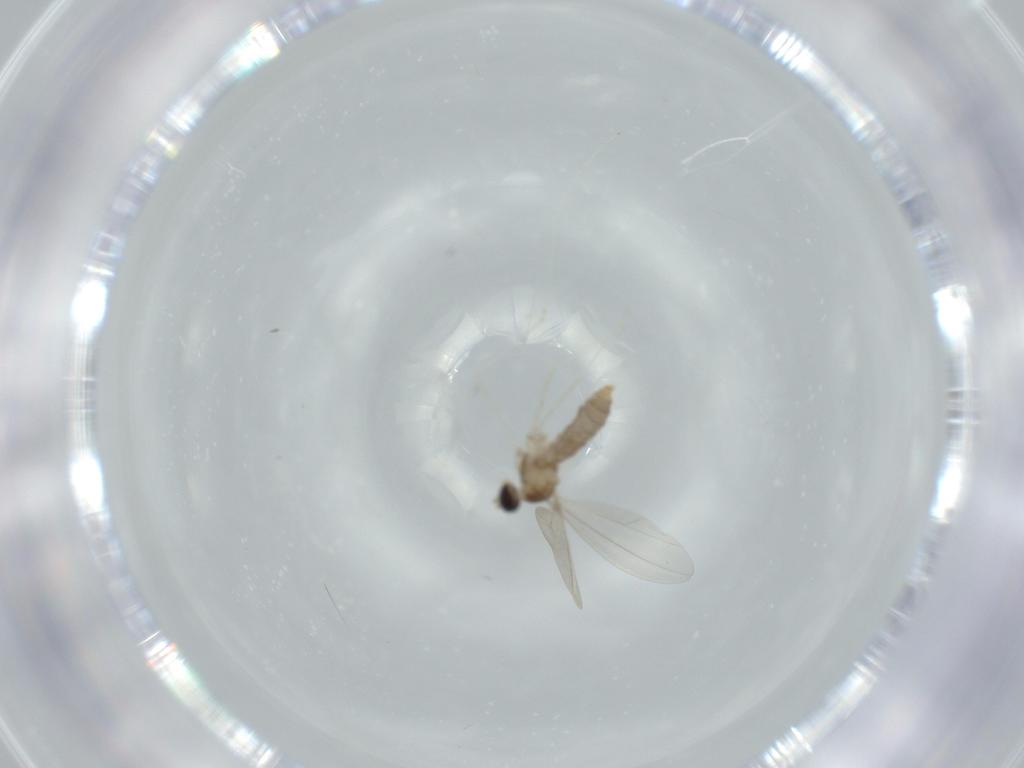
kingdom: Animalia
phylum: Arthropoda
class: Insecta
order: Diptera
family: Cecidomyiidae
